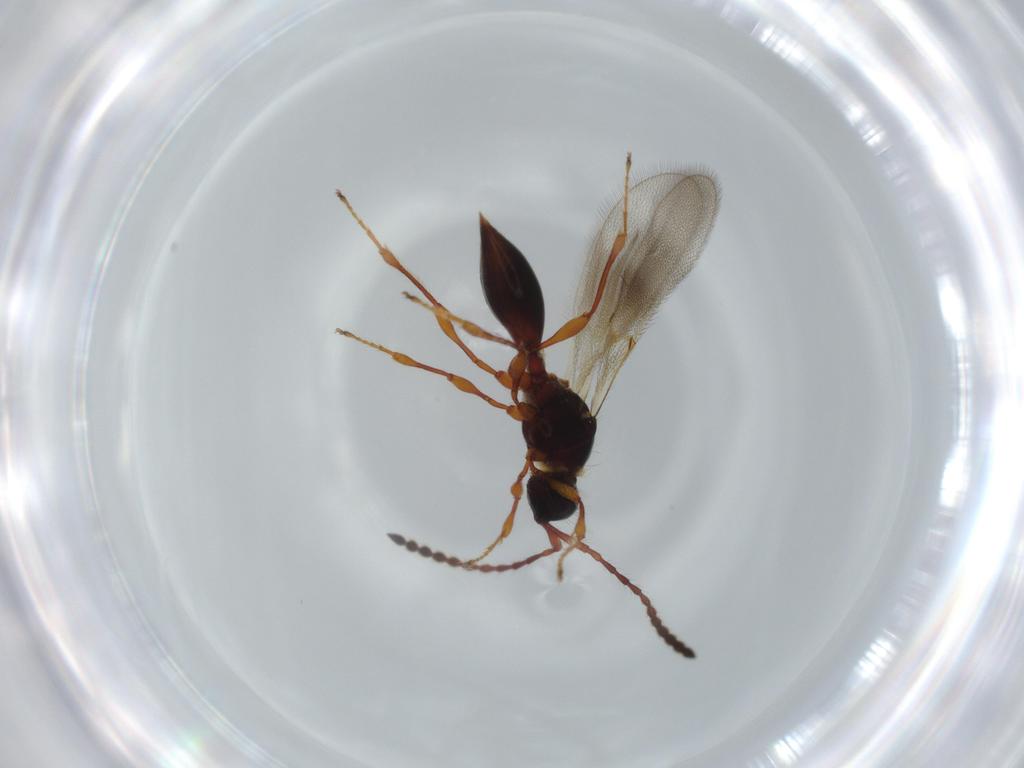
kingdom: Animalia
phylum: Arthropoda
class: Insecta
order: Hymenoptera
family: Diapriidae
